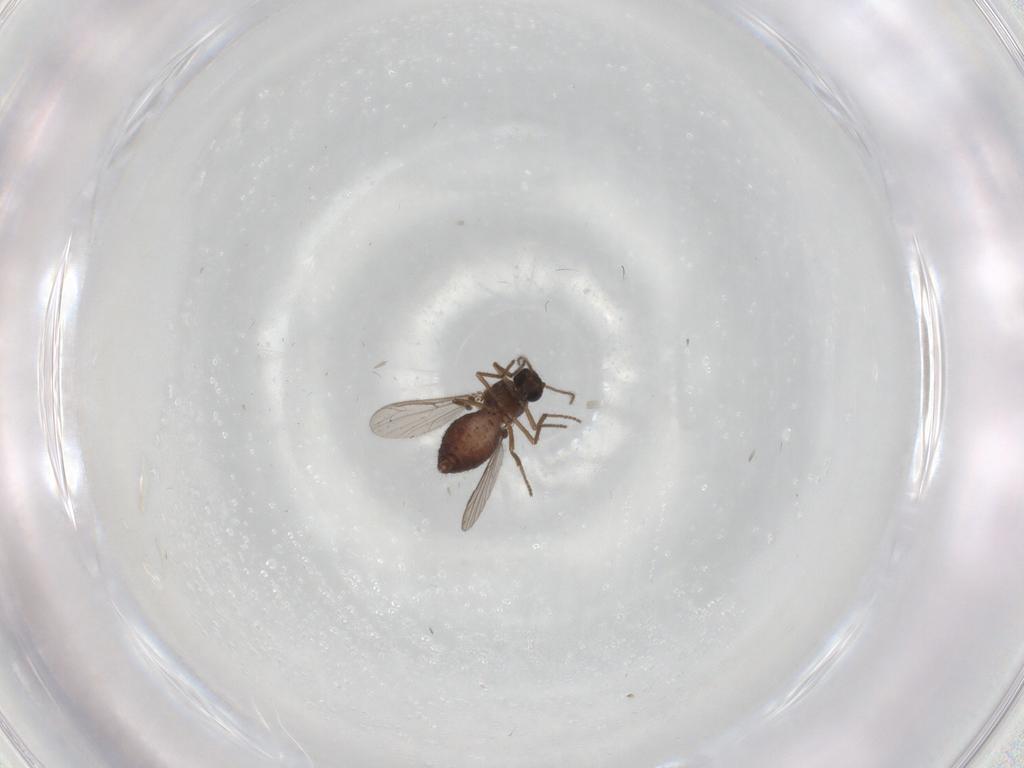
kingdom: Animalia
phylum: Arthropoda
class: Insecta
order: Diptera
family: Ceratopogonidae
